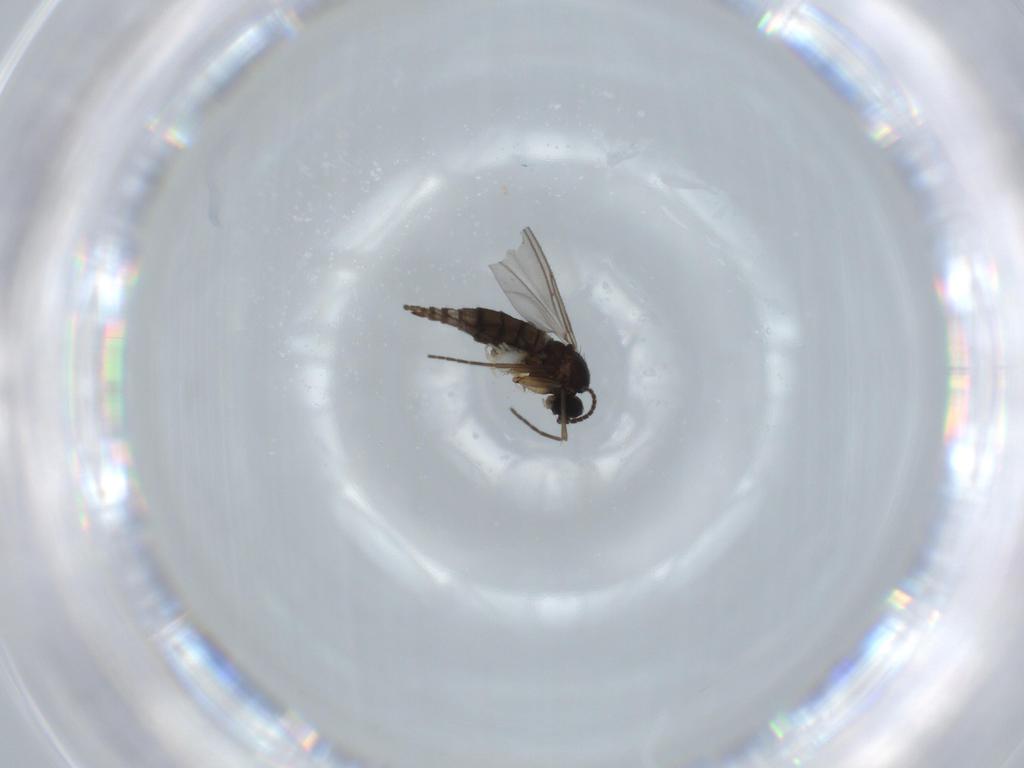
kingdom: Animalia
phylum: Arthropoda
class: Insecta
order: Diptera
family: Sciaridae
